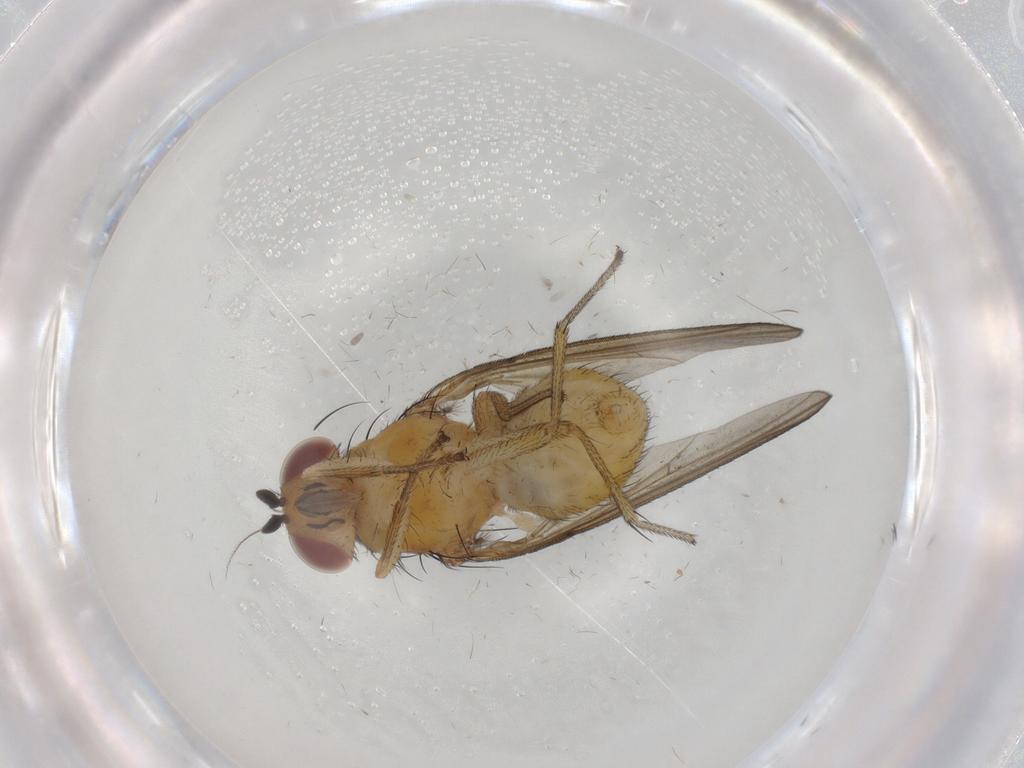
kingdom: Animalia
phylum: Arthropoda
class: Insecta
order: Diptera
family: Ceratopogonidae
